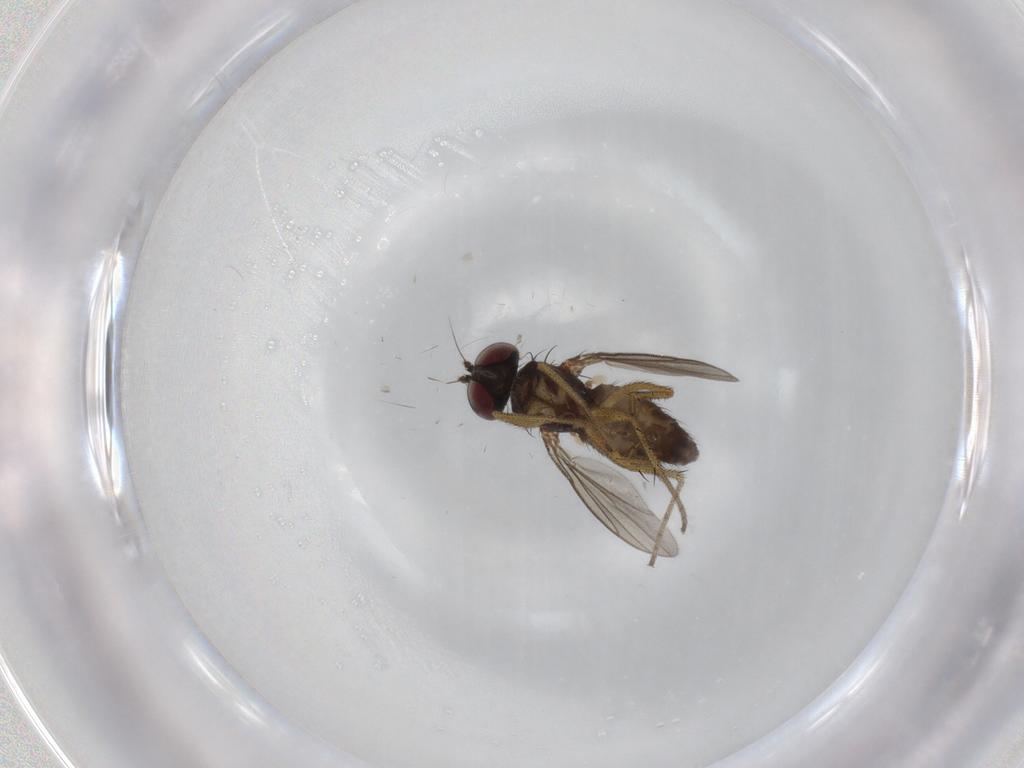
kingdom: Animalia
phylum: Arthropoda
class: Insecta
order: Diptera
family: Dolichopodidae
